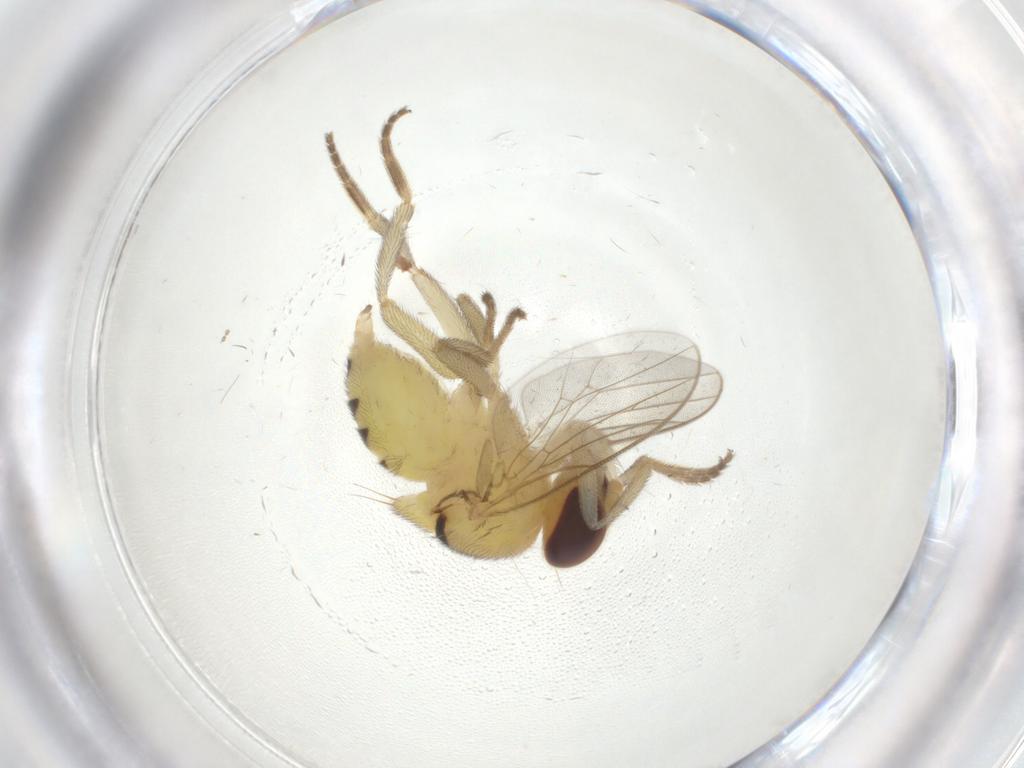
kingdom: Animalia
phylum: Arthropoda
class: Insecta
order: Diptera
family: Chloropidae
